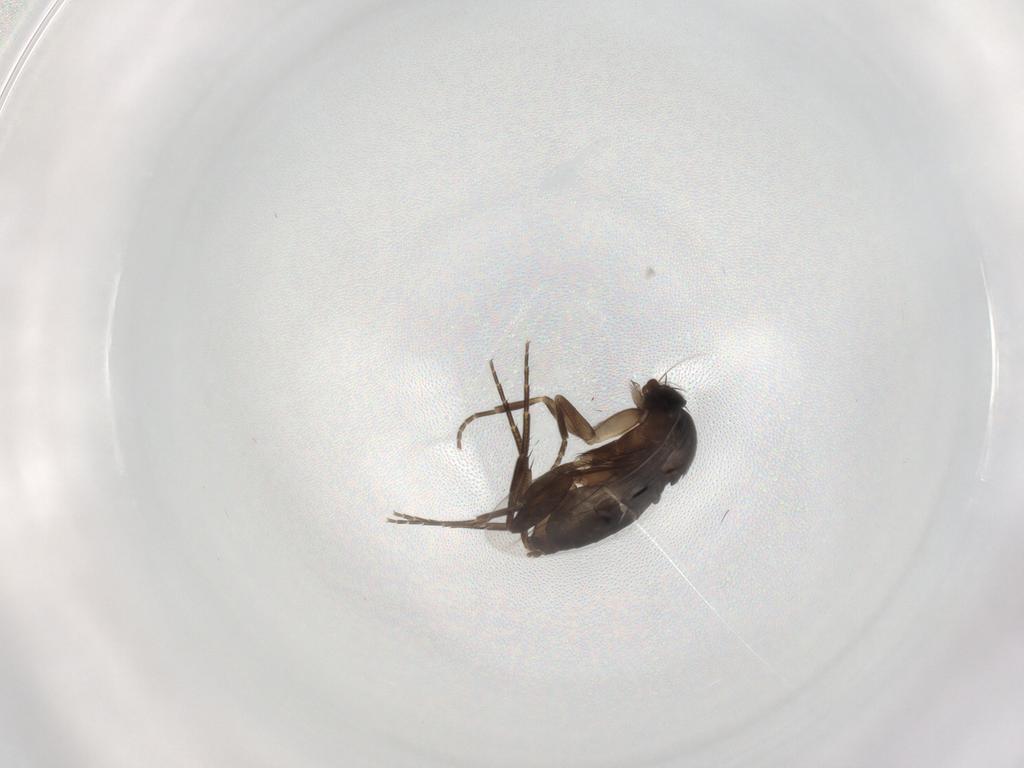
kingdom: Animalia
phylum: Arthropoda
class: Insecta
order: Diptera
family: Phoridae
